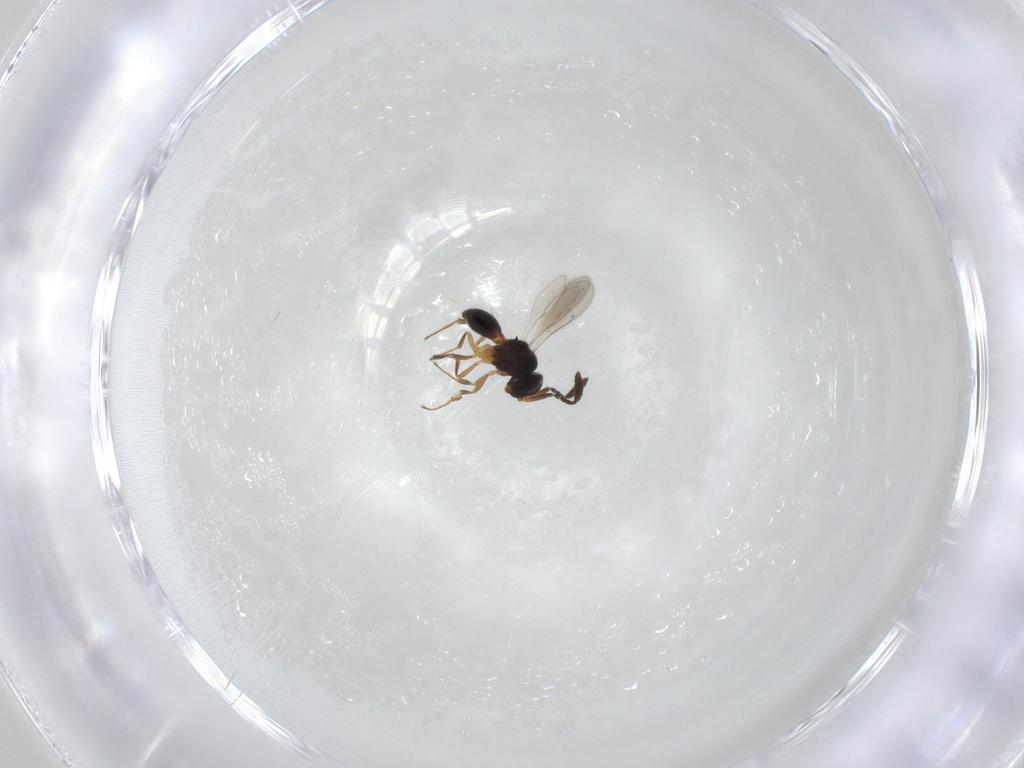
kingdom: Animalia
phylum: Arthropoda
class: Insecta
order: Hymenoptera
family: Scelionidae
